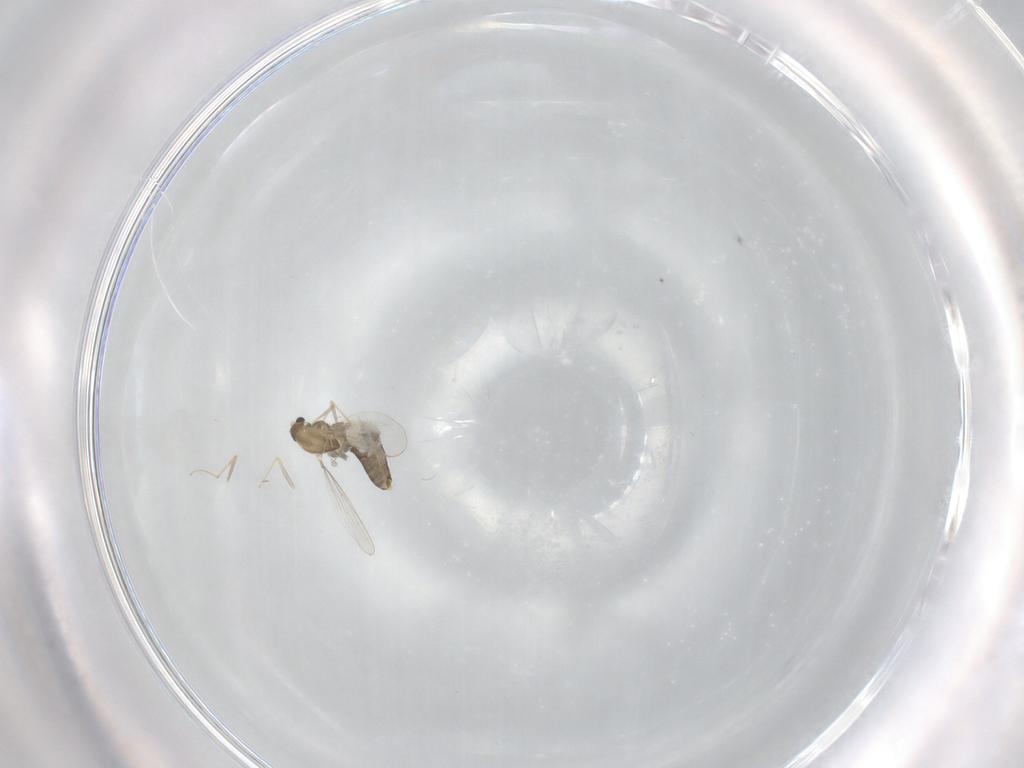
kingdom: Animalia
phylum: Arthropoda
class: Insecta
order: Diptera
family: Chironomidae
